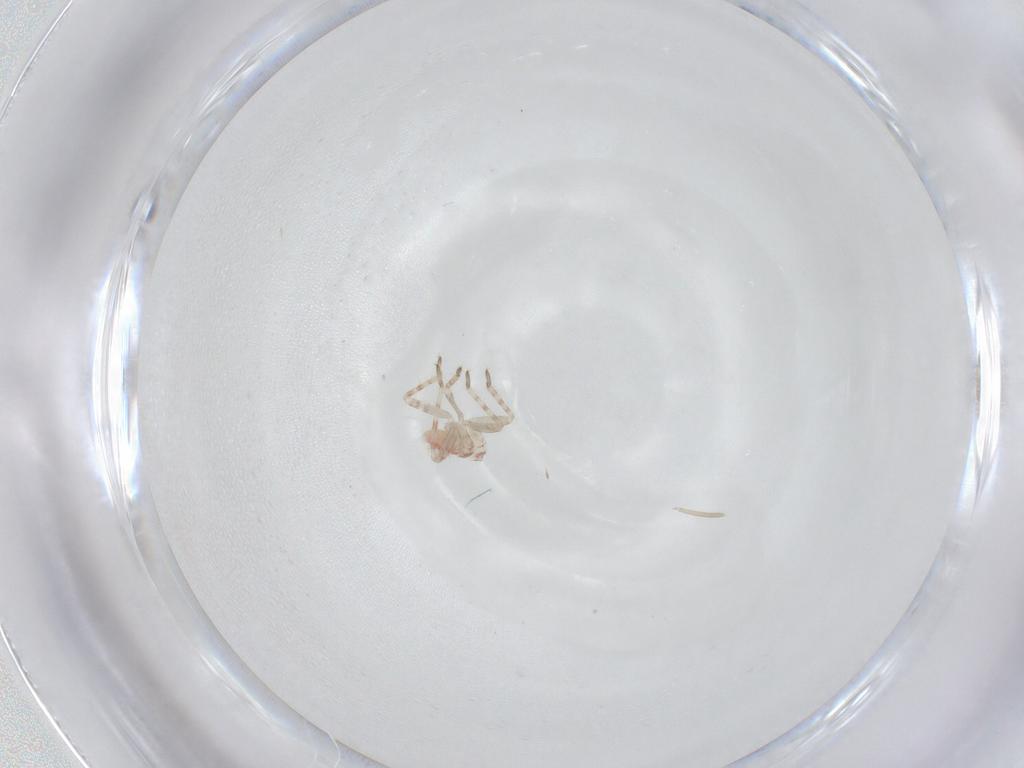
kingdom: Animalia
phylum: Arthropoda
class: Insecta
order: Hemiptera
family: Miridae
